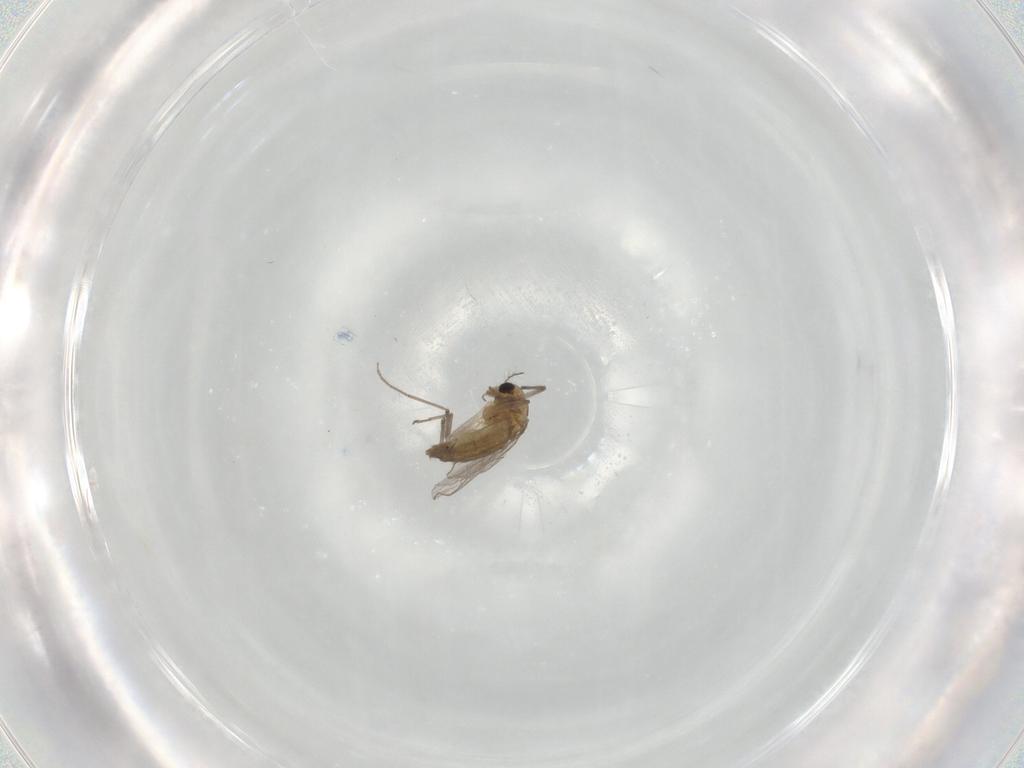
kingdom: Animalia
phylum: Arthropoda
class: Insecta
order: Diptera
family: Chironomidae
